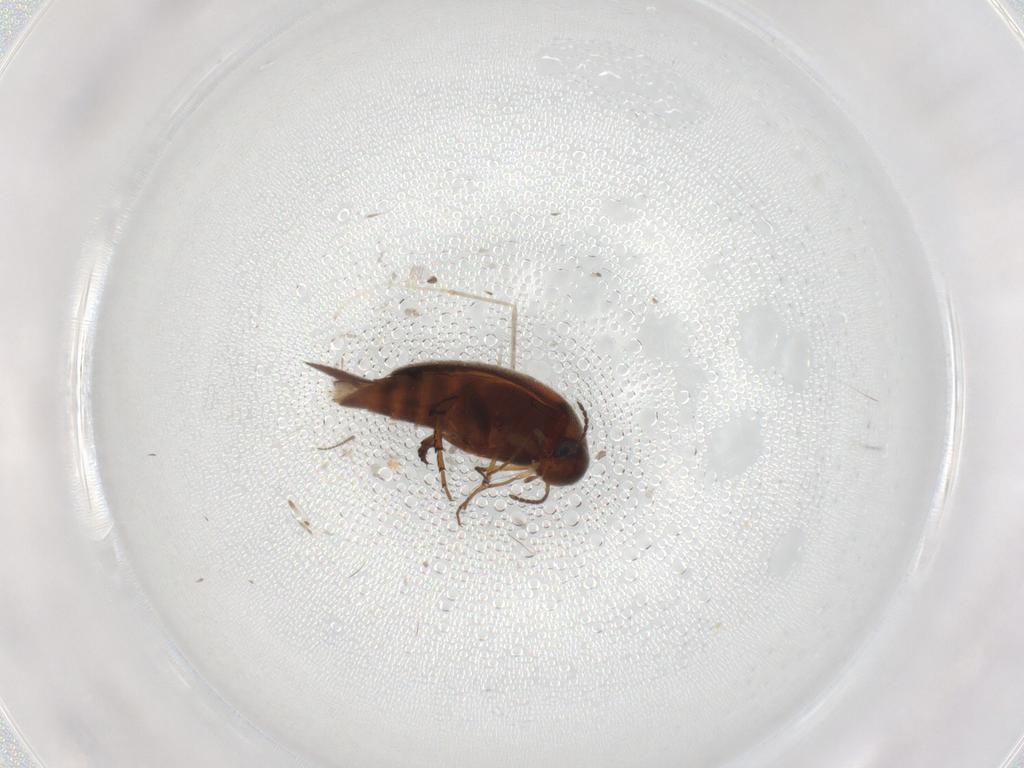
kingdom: Animalia
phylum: Arthropoda
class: Insecta
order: Coleoptera
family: Mordellidae
